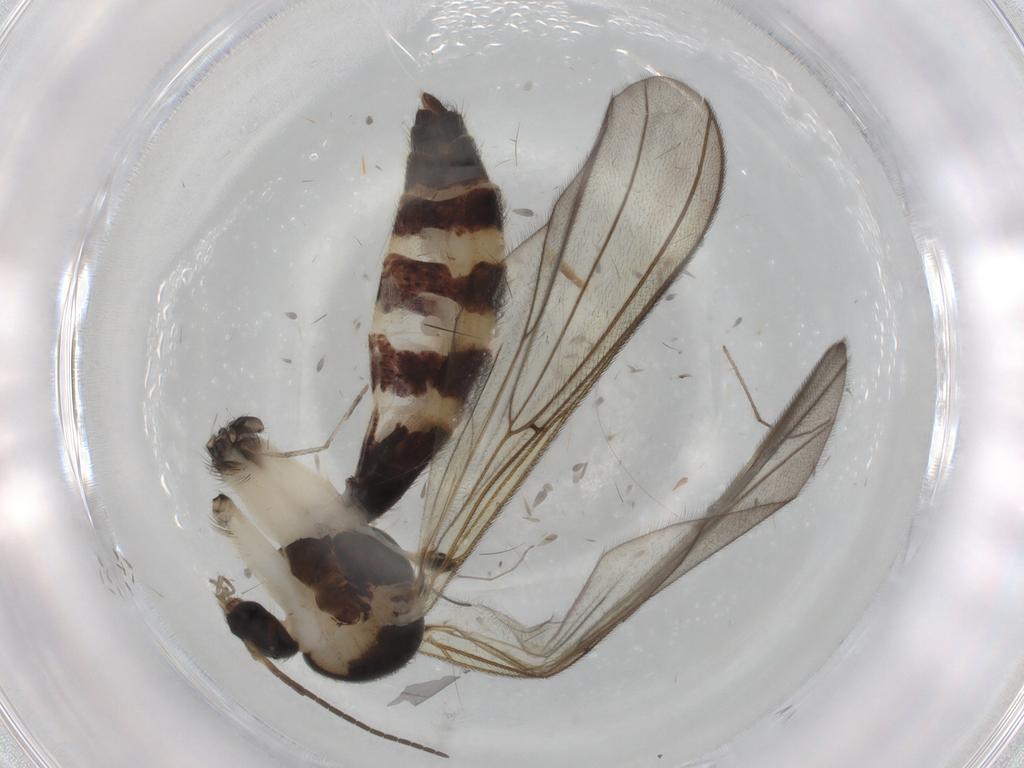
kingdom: Animalia
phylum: Arthropoda
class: Insecta
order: Diptera
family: Mycetophilidae
